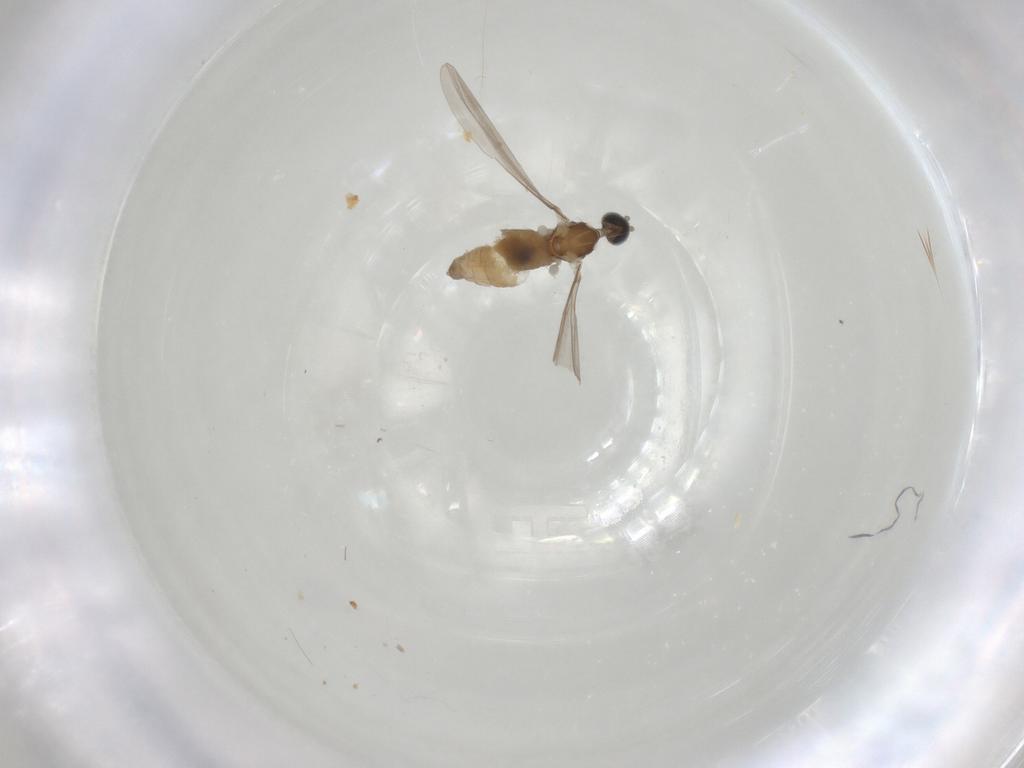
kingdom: Animalia
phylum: Arthropoda
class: Insecta
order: Diptera
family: Cecidomyiidae
